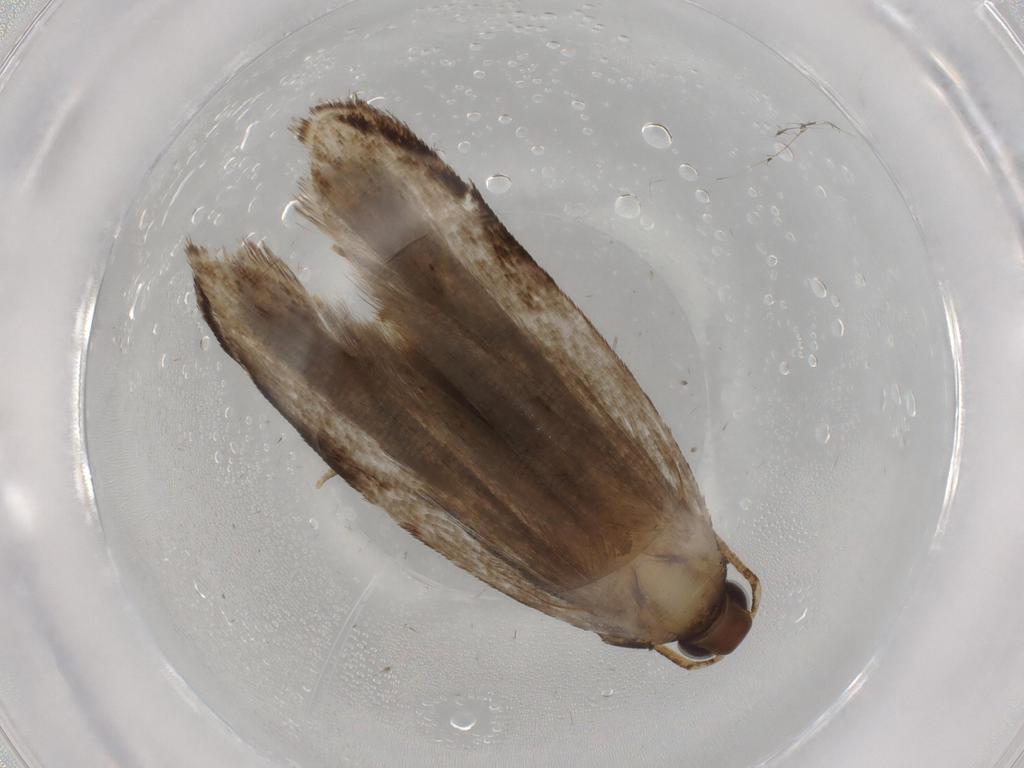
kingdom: Animalia
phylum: Arthropoda
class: Insecta
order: Lepidoptera
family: Gelechiidae
